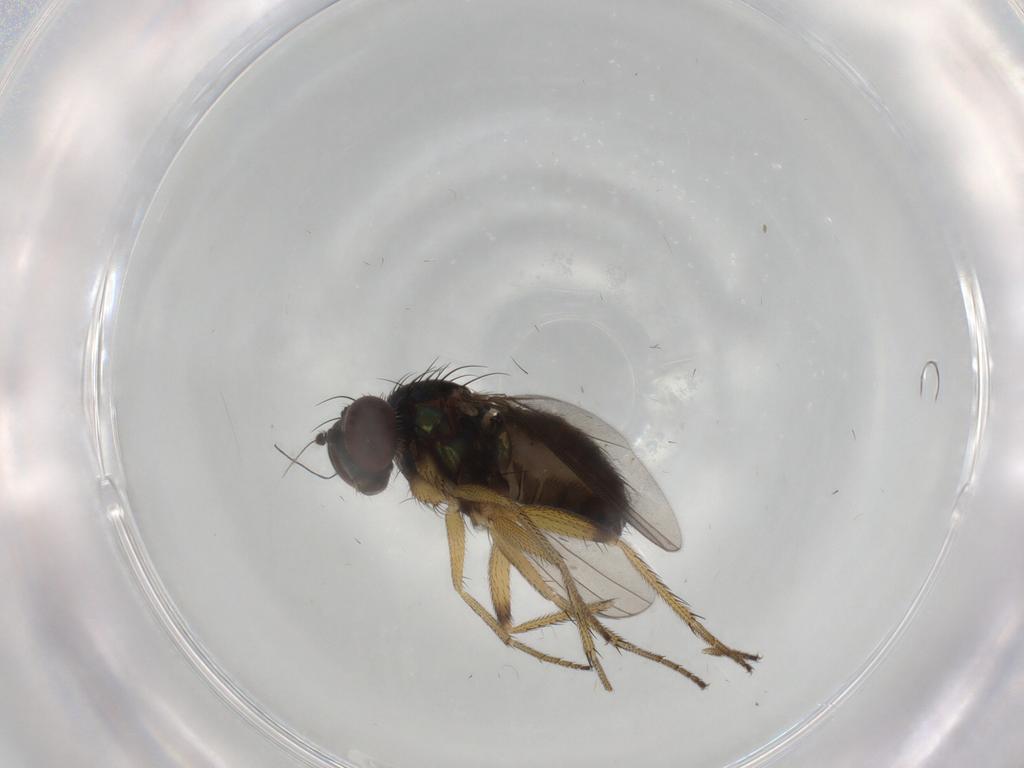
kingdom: Animalia
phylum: Arthropoda
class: Insecta
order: Diptera
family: Dolichopodidae
